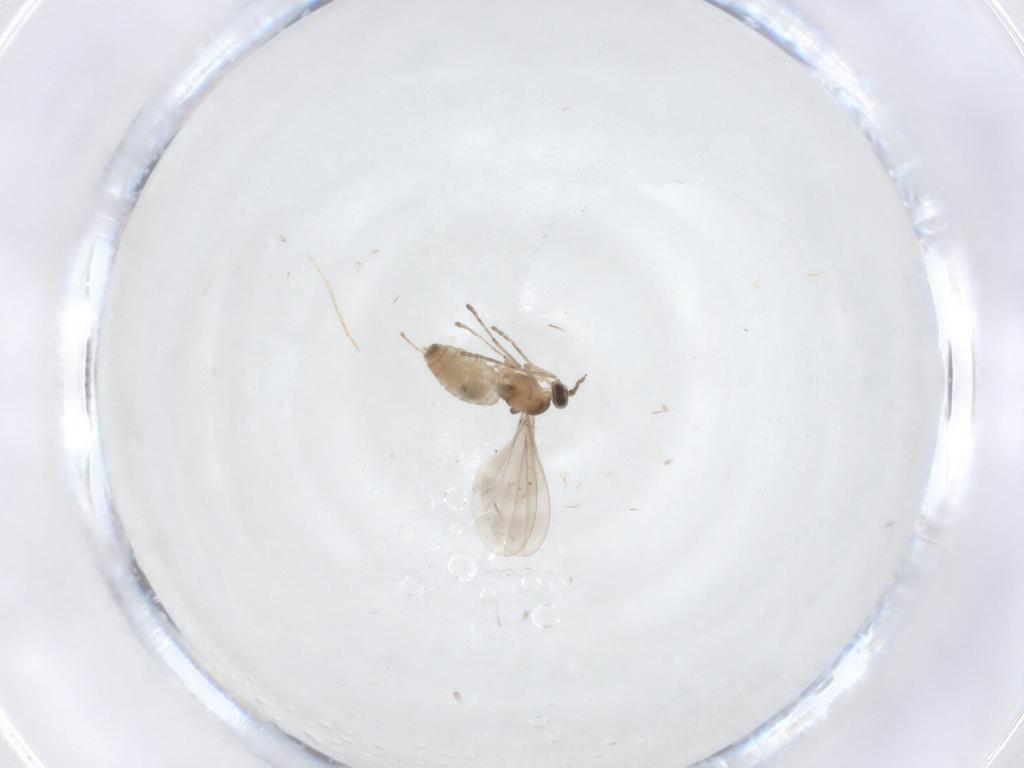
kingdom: Animalia
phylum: Arthropoda
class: Insecta
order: Diptera
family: Chironomidae
